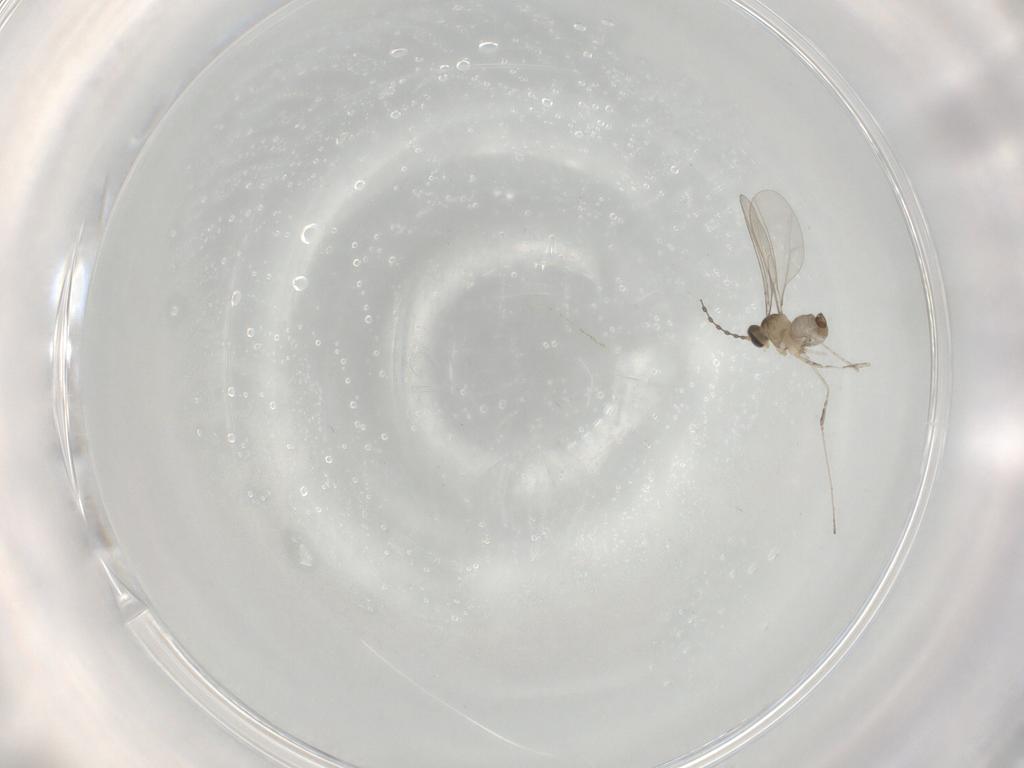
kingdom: Animalia
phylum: Arthropoda
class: Insecta
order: Diptera
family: Cecidomyiidae
